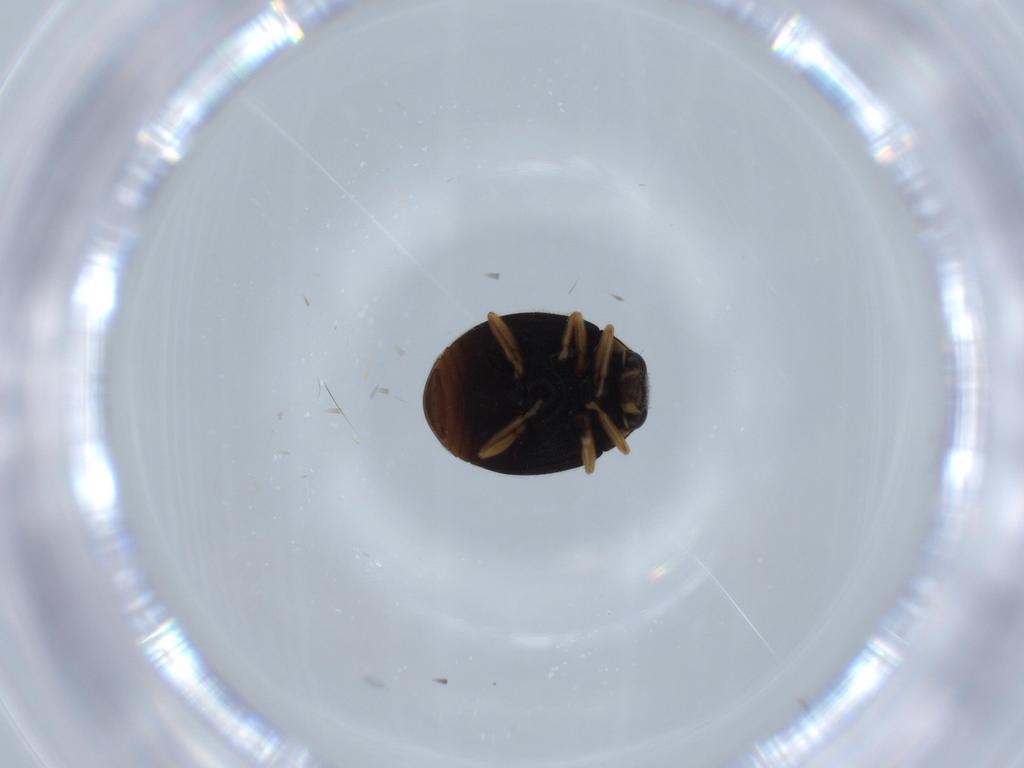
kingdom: Animalia
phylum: Arthropoda
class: Insecta
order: Coleoptera
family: Coccinellidae
